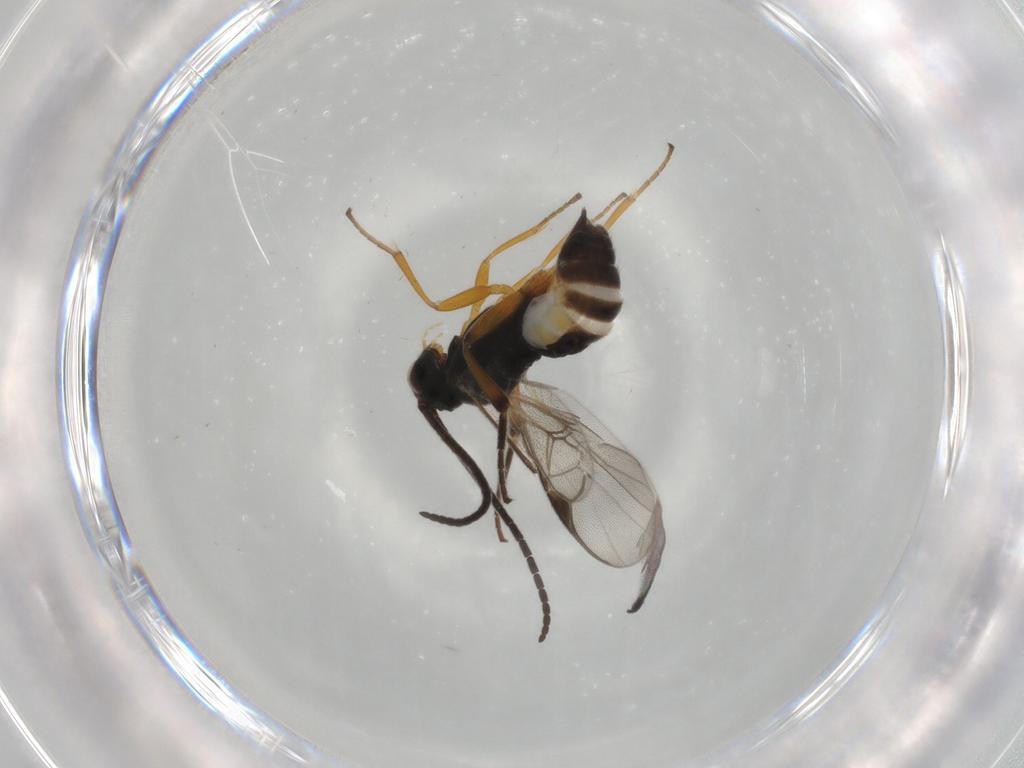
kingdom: Animalia
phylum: Arthropoda
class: Insecta
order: Hymenoptera
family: Braconidae
